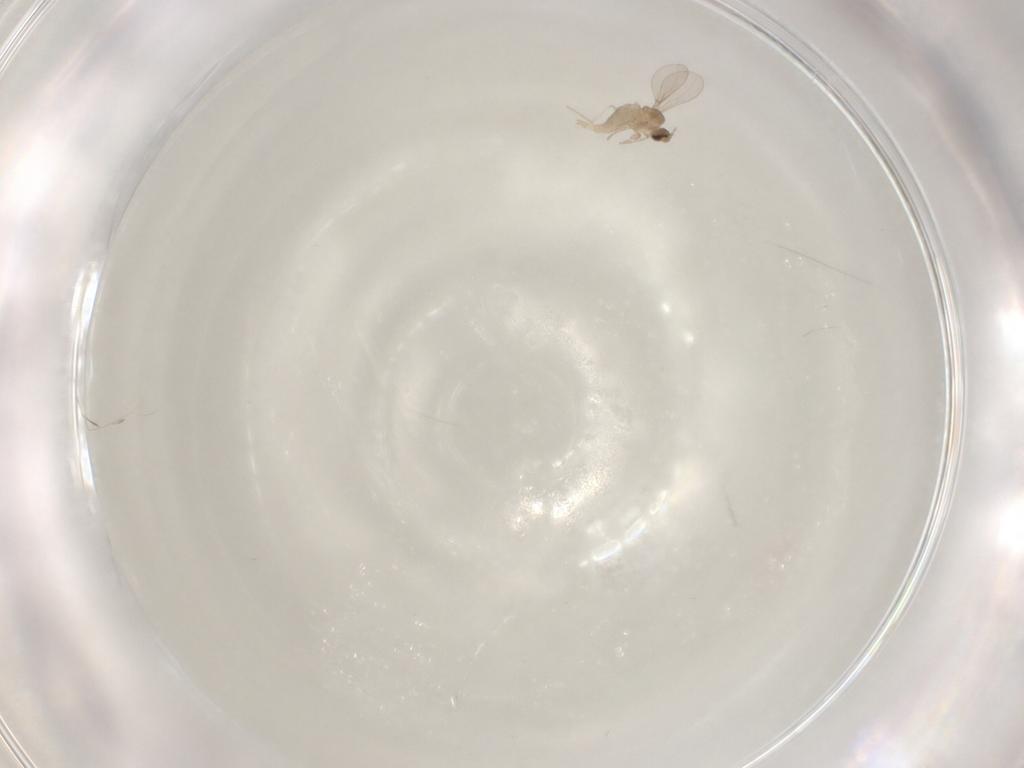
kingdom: Animalia
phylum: Arthropoda
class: Insecta
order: Diptera
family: Cecidomyiidae
